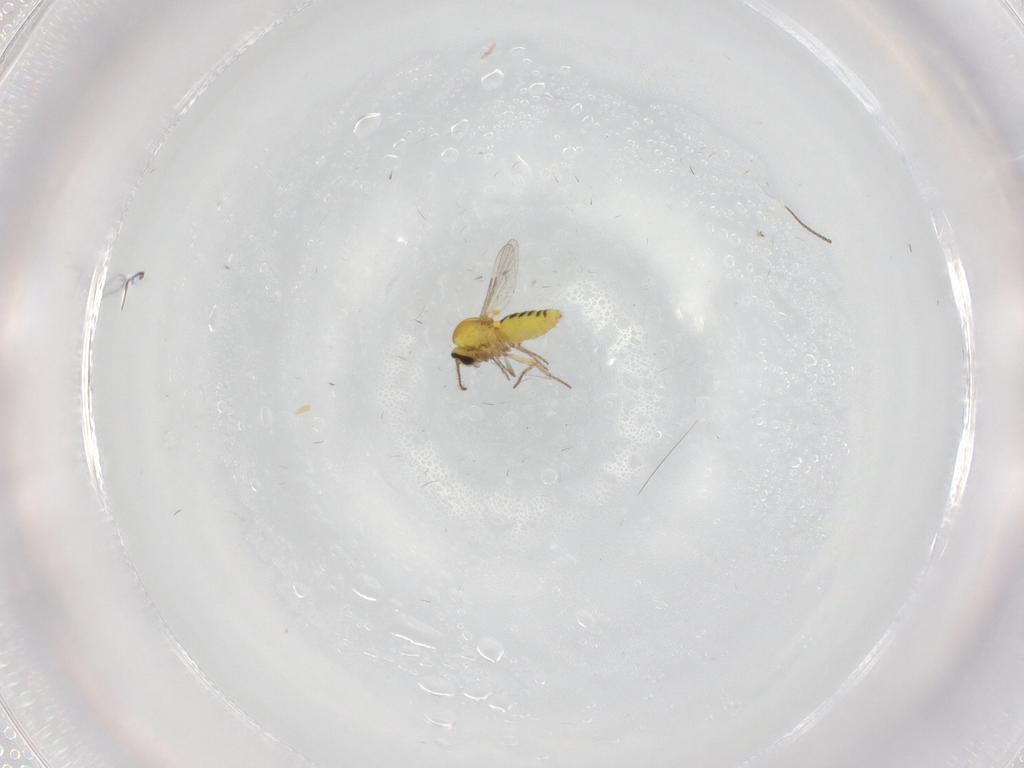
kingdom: Animalia
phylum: Arthropoda
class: Insecta
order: Diptera
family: Ceratopogonidae
